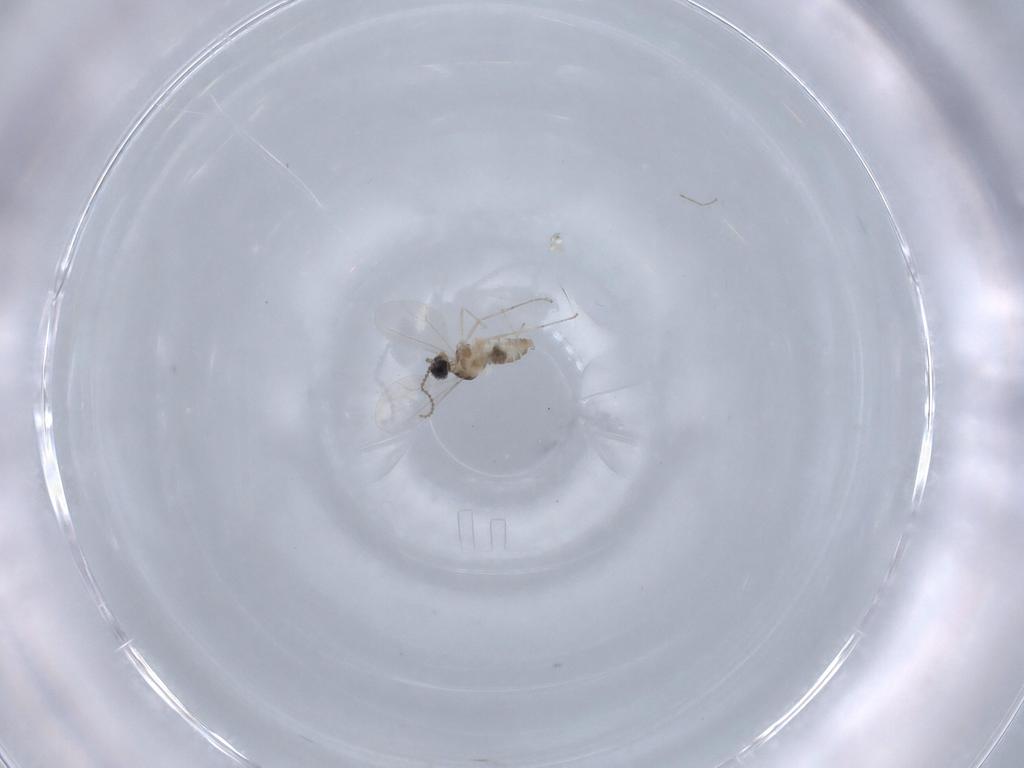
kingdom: Animalia
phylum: Arthropoda
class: Insecta
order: Diptera
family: Cecidomyiidae
